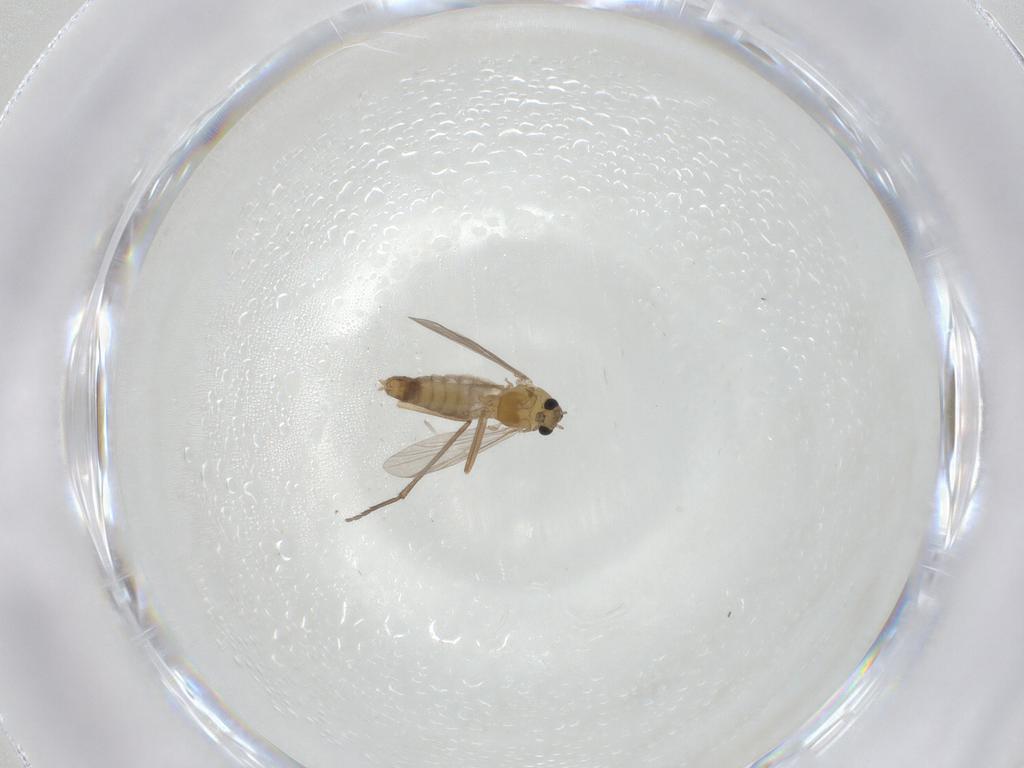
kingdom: Animalia
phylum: Arthropoda
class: Insecta
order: Diptera
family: Chironomidae
